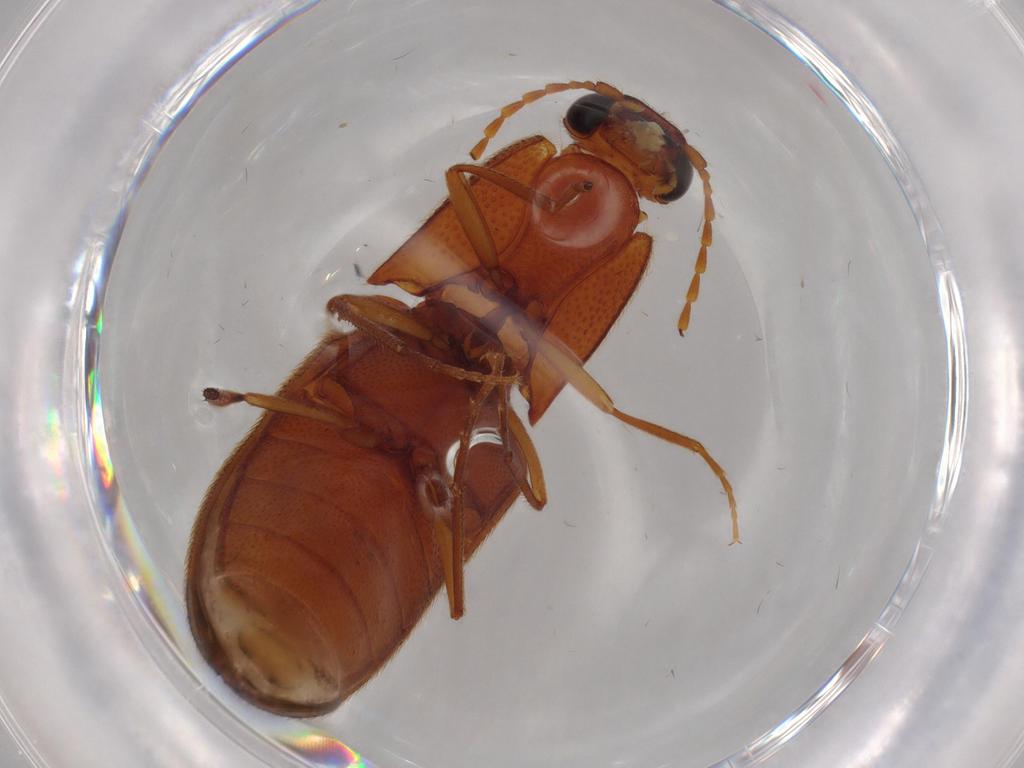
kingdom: Animalia
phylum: Arthropoda
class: Insecta
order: Coleoptera
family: Elateridae
